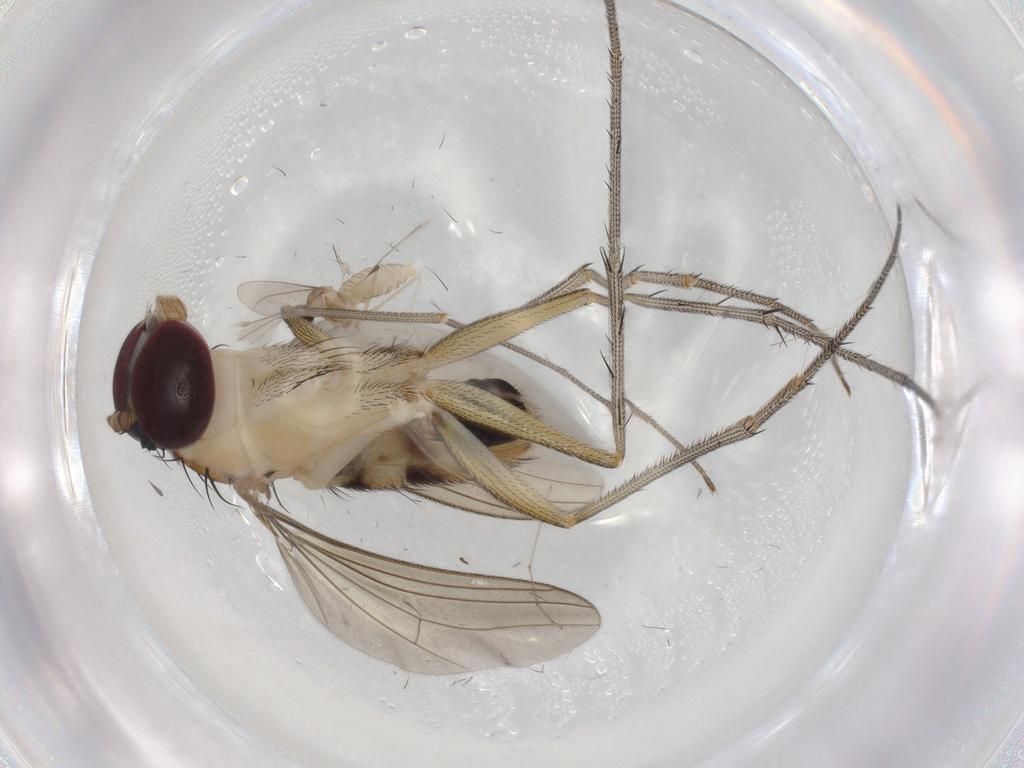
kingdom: Animalia
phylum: Arthropoda
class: Insecta
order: Diptera
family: Cecidomyiidae
